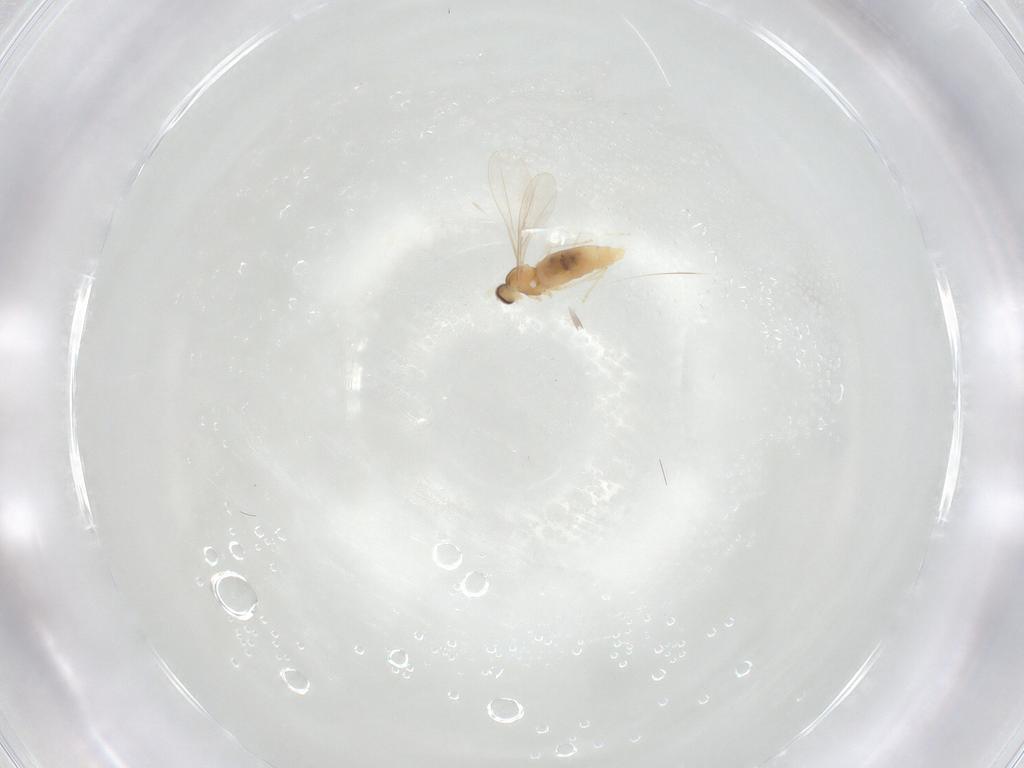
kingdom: Animalia
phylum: Arthropoda
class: Insecta
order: Diptera
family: Cecidomyiidae
